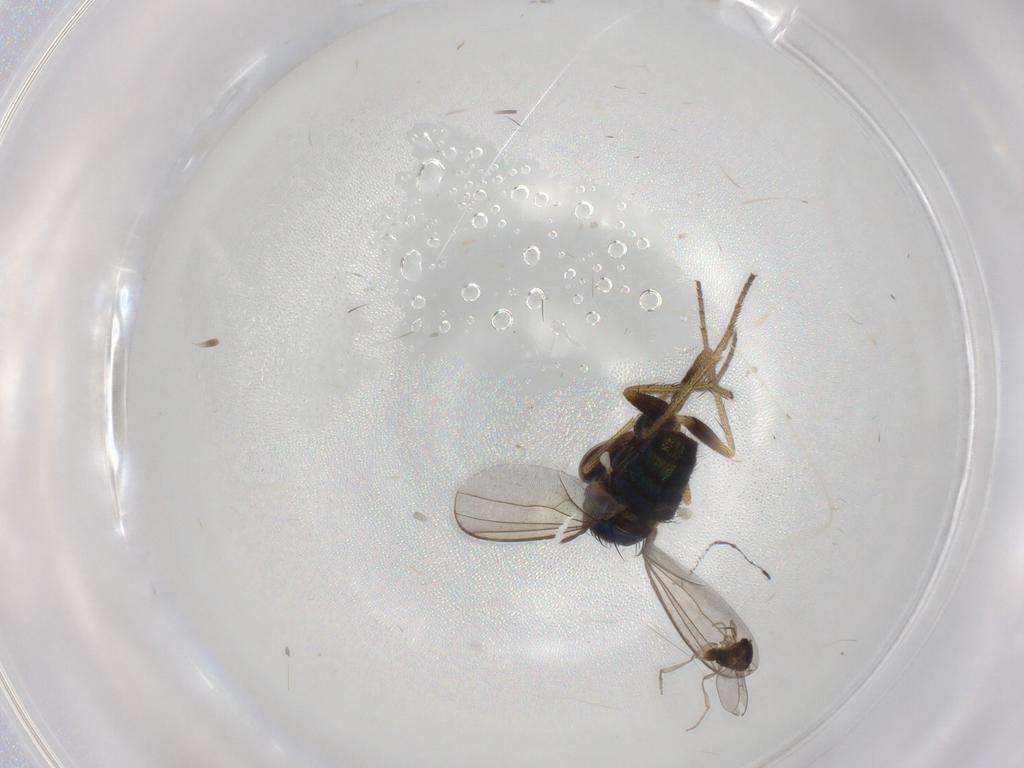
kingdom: Animalia
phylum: Arthropoda
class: Insecta
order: Diptera
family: Cecidomyiidae
